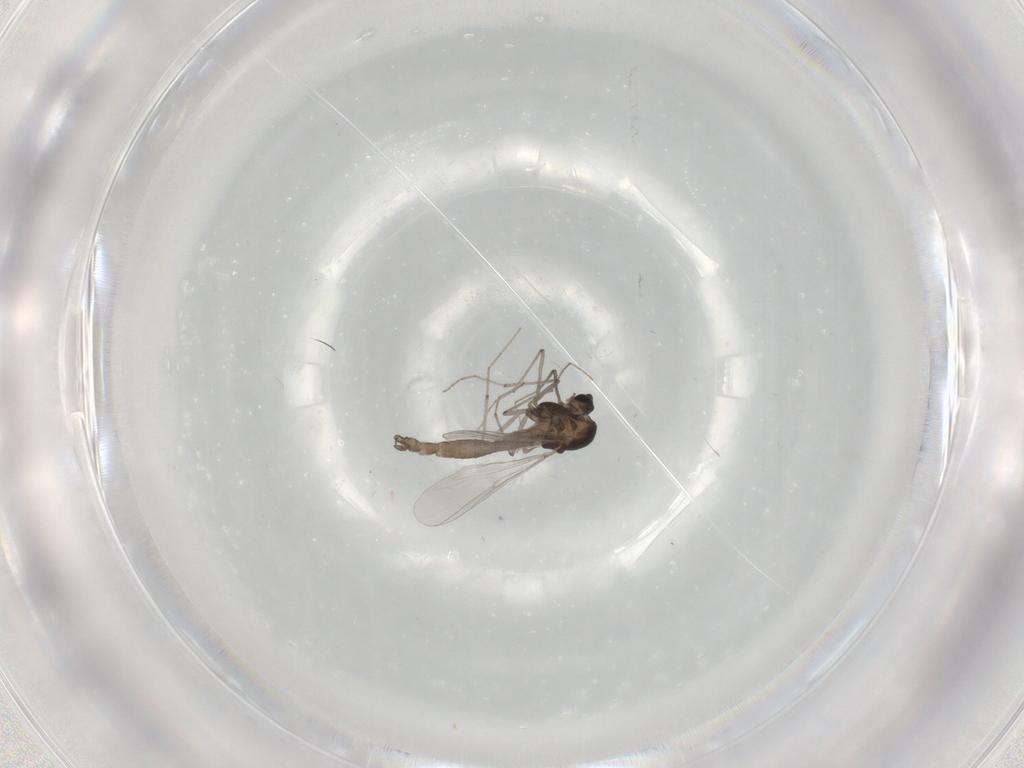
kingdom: Animalia
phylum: Arthropoda
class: Insecta
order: Diptera
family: Chironomidae
